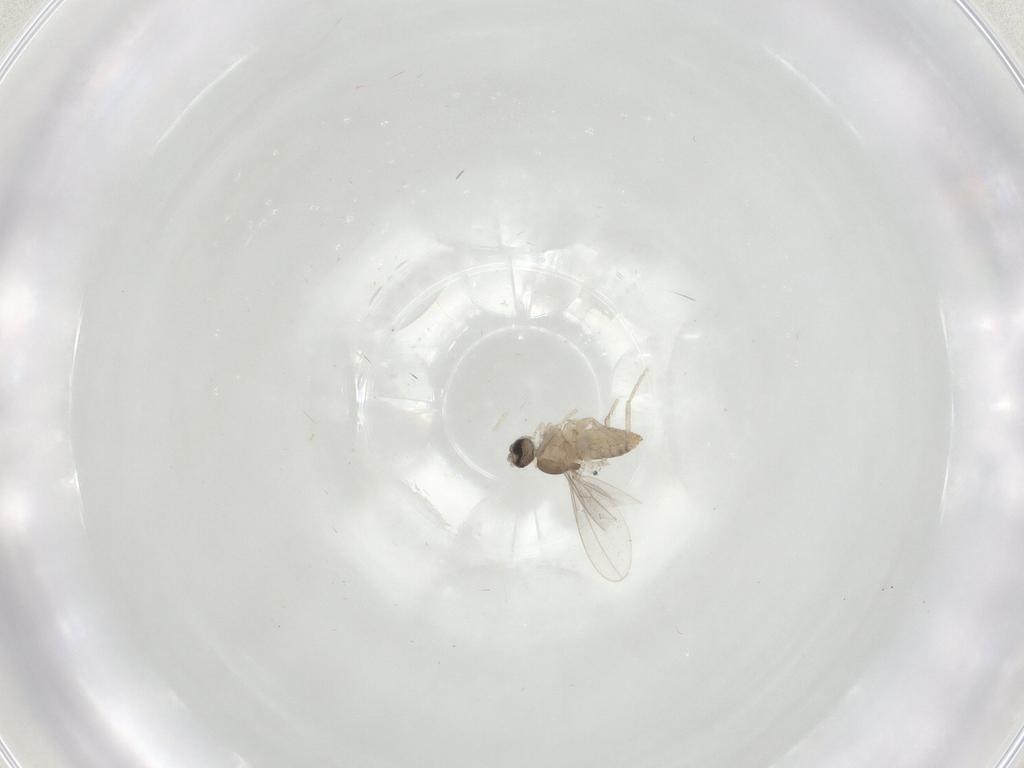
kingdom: Animalia
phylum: Arthropoda
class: Insecta
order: Diptera
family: Cecidomyiidae
